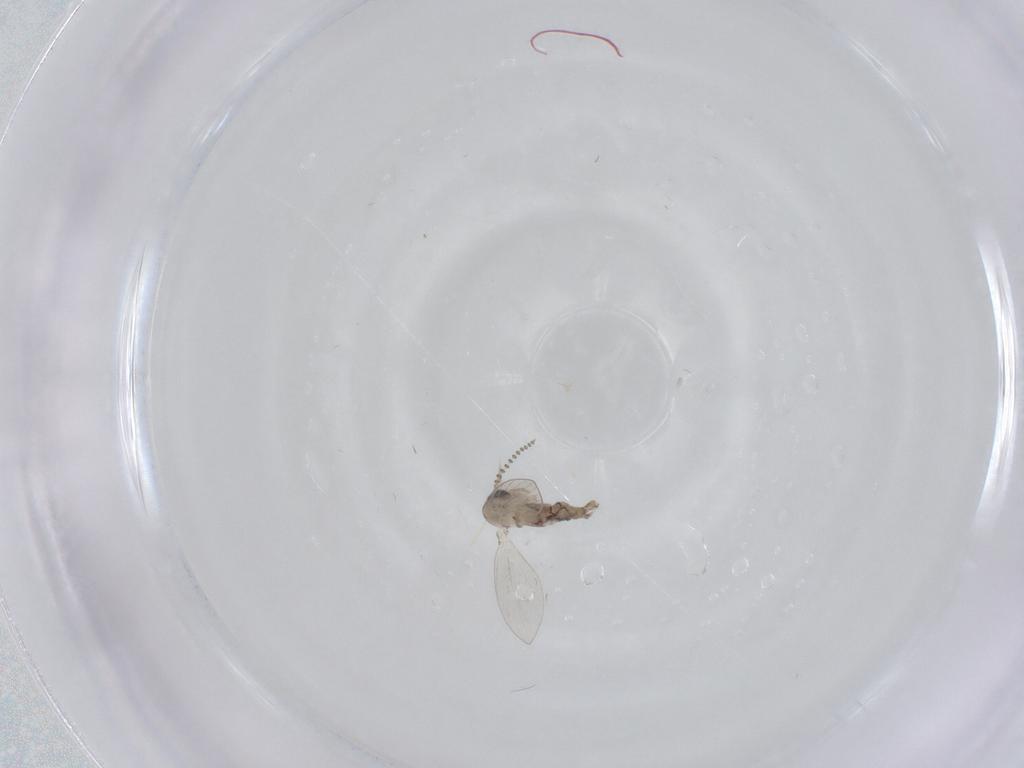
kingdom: Animalia
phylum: Arthropoda
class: Insecta
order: Diptera
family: Psychodidae
